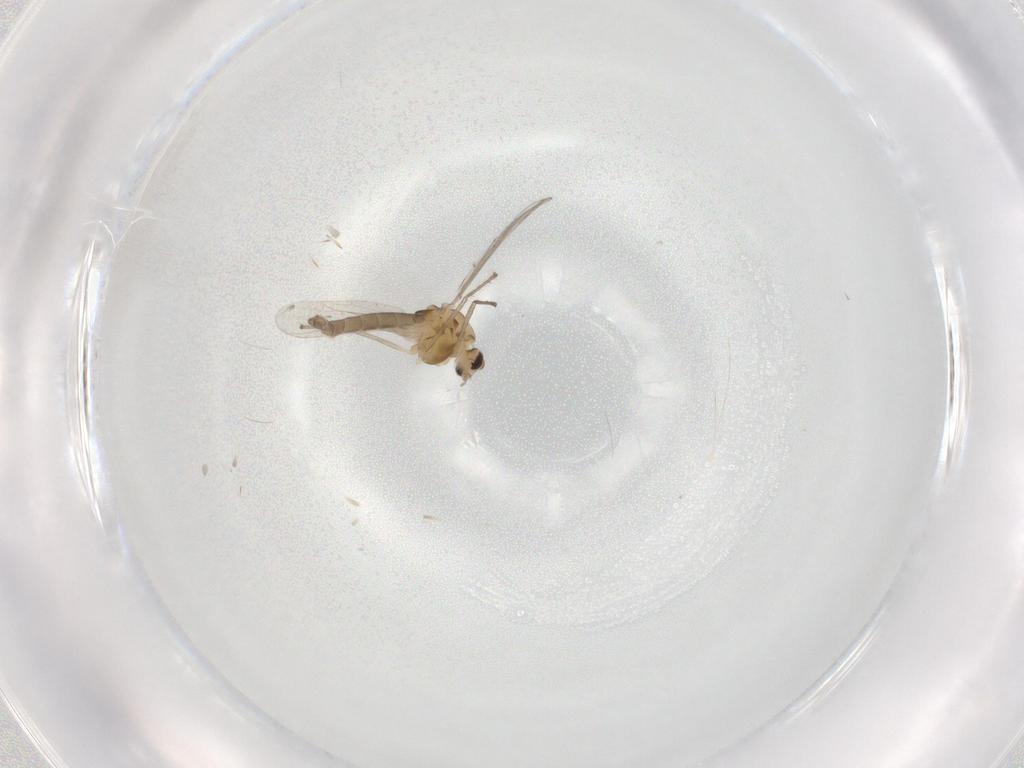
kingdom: Animalia
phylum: Arthropoda
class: Insecta
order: Diptera
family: Chironomidae
